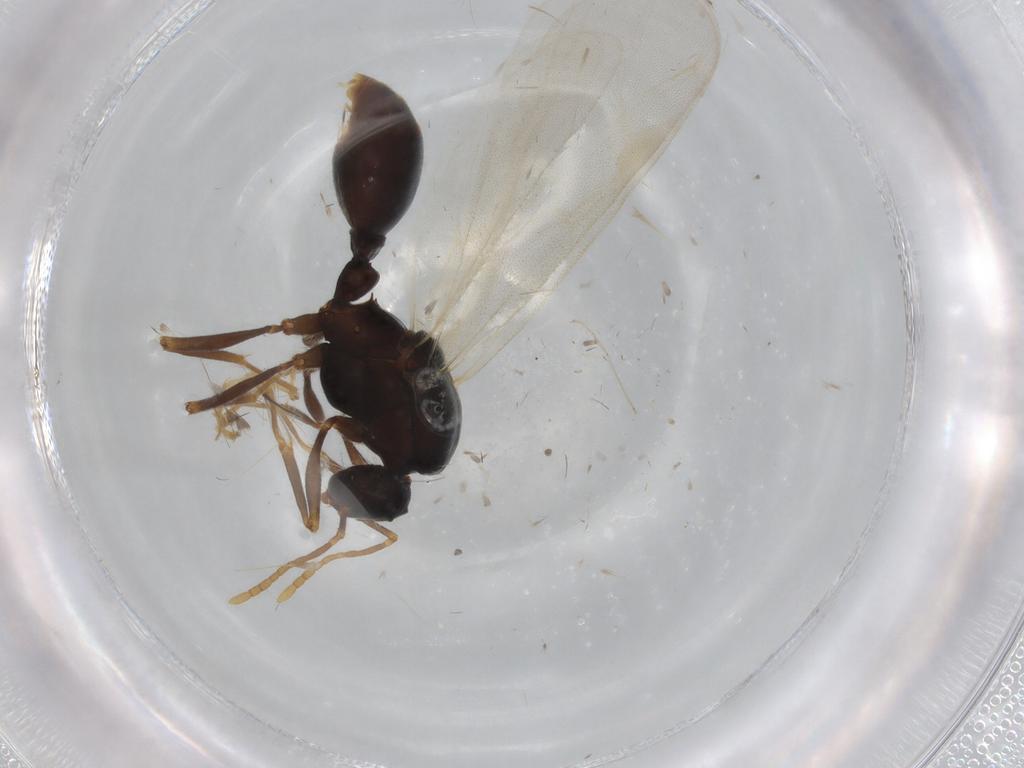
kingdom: Animalia
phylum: Arthropoda
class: Insecta
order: Hymenoptera
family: Formicidae
